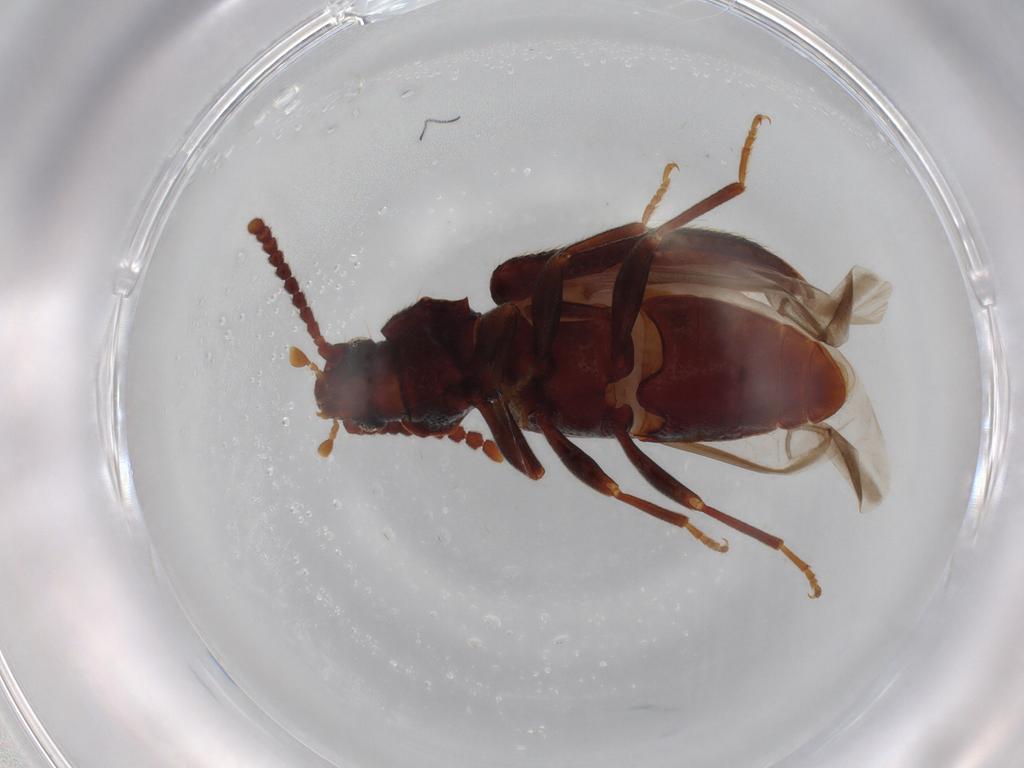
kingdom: Animalia
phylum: Arthropoda
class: Insecta
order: Coleoptera
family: Tenebrionidae
